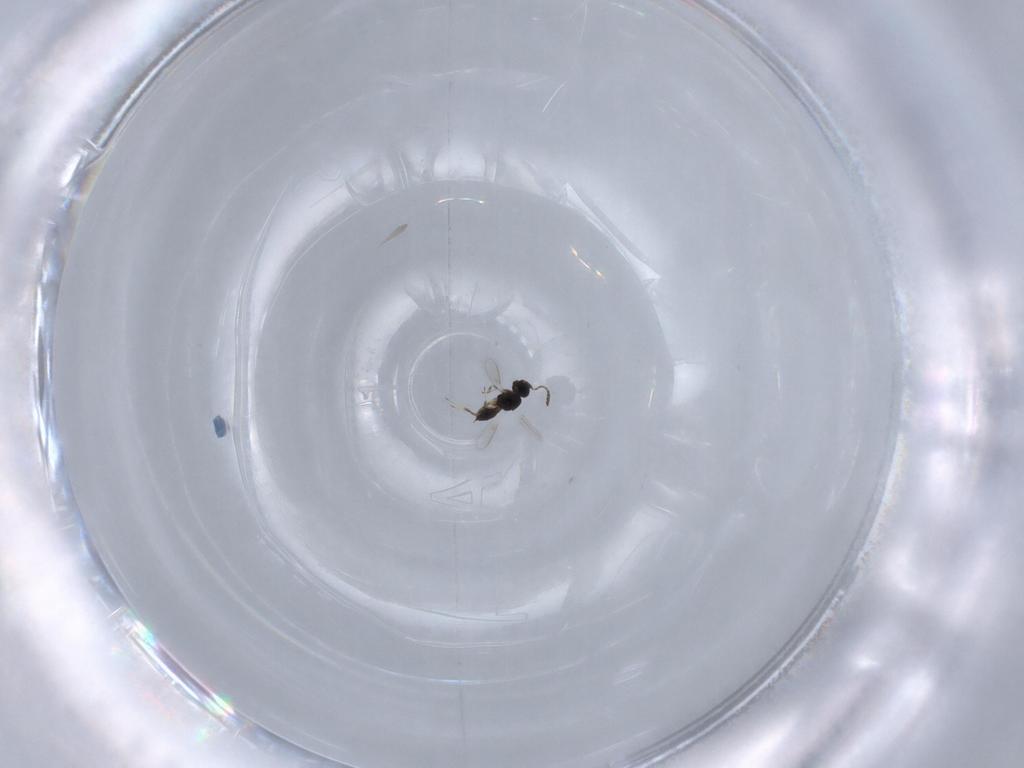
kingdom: Animalia
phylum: Arthropoda
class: Insecta
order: Hymenoptera
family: Scelionidae
